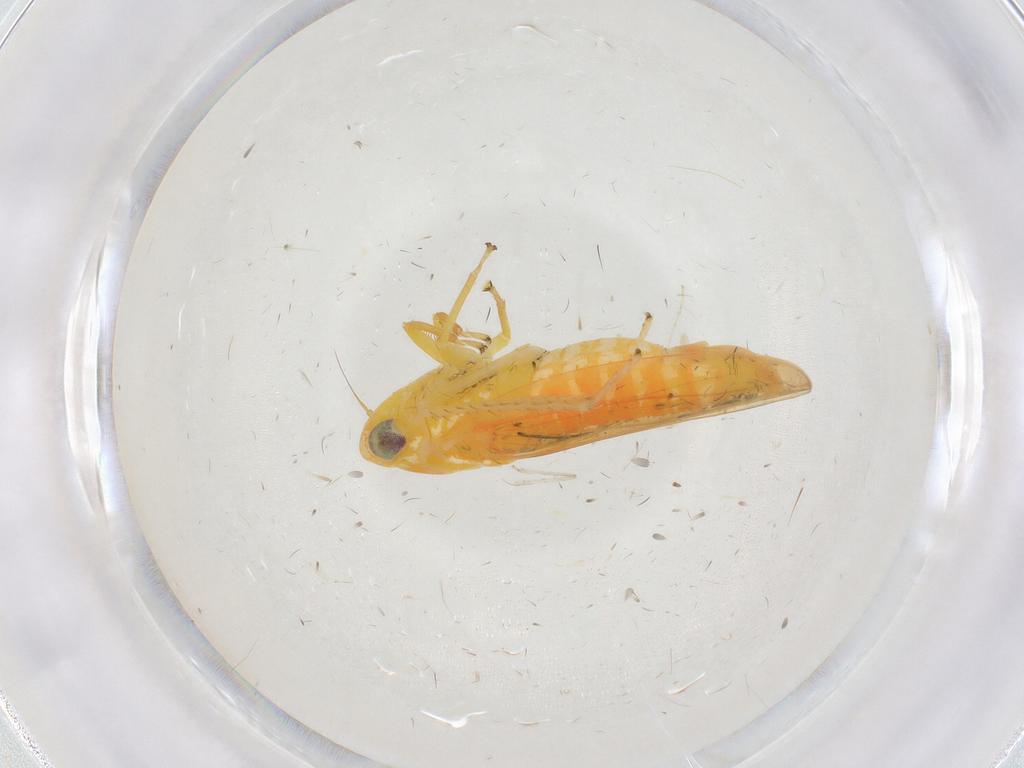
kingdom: Animalia
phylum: Arthropoda
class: Insecta
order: Hemiptera
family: Cicadellidae
